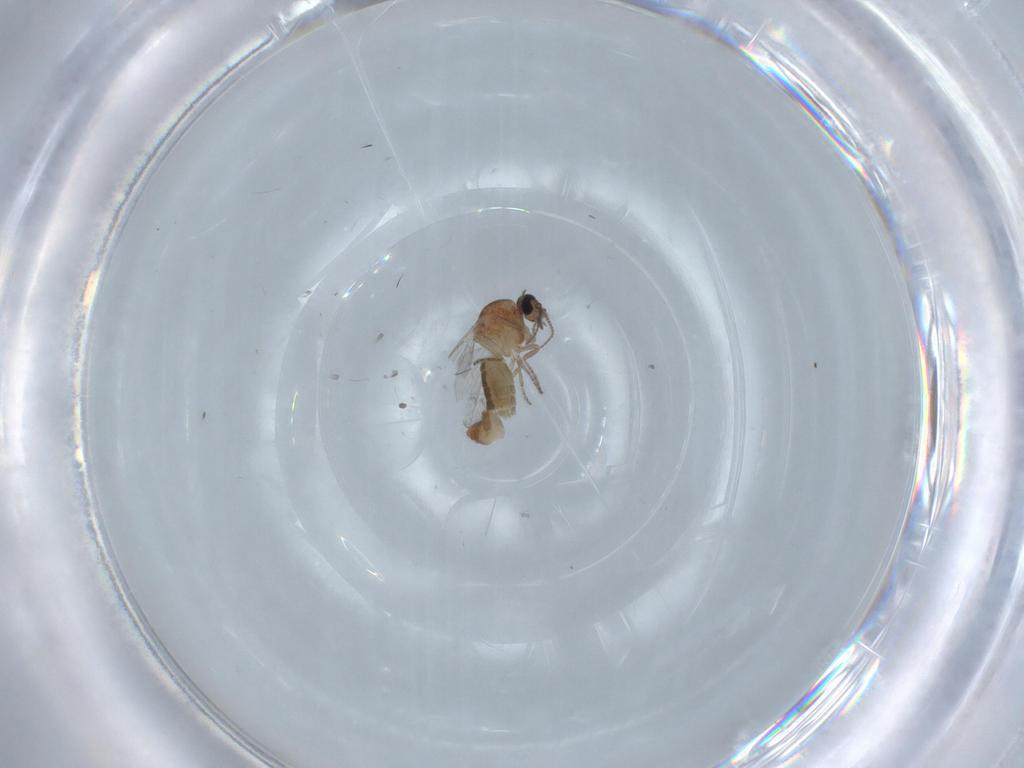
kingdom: Animalia
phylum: Arthropoda
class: Insecta
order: Diptera
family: Ceratopogonidae
